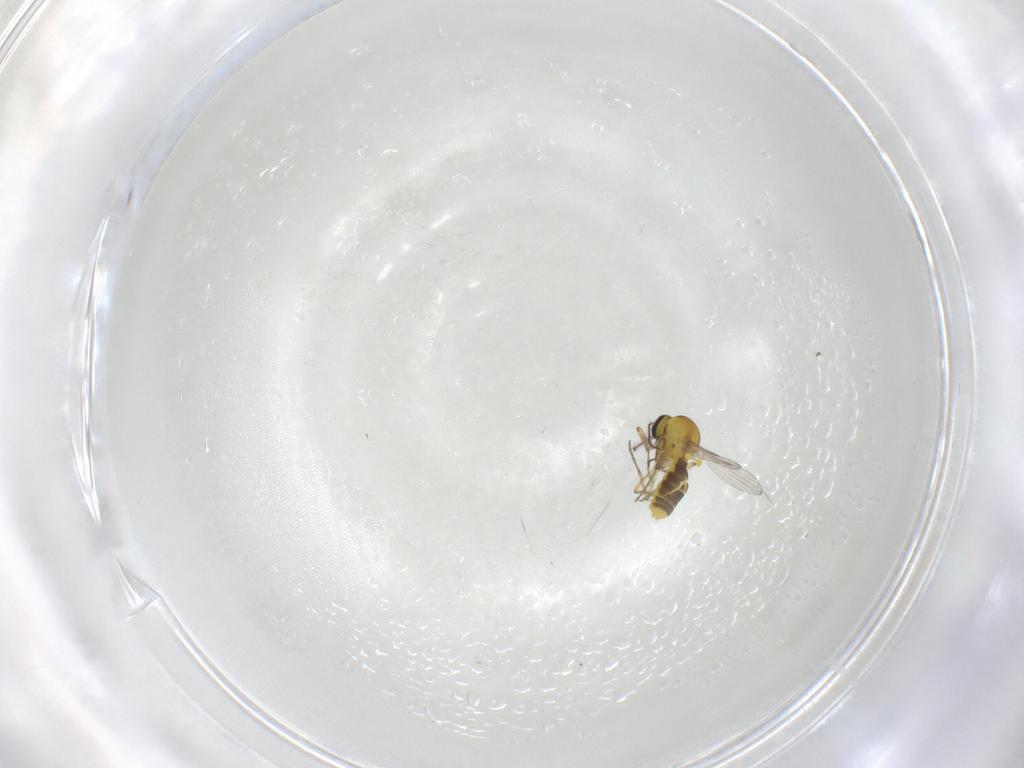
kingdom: Animalia
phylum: Arthropoda
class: Insecta
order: Diptera
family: Ceratopogonidae
